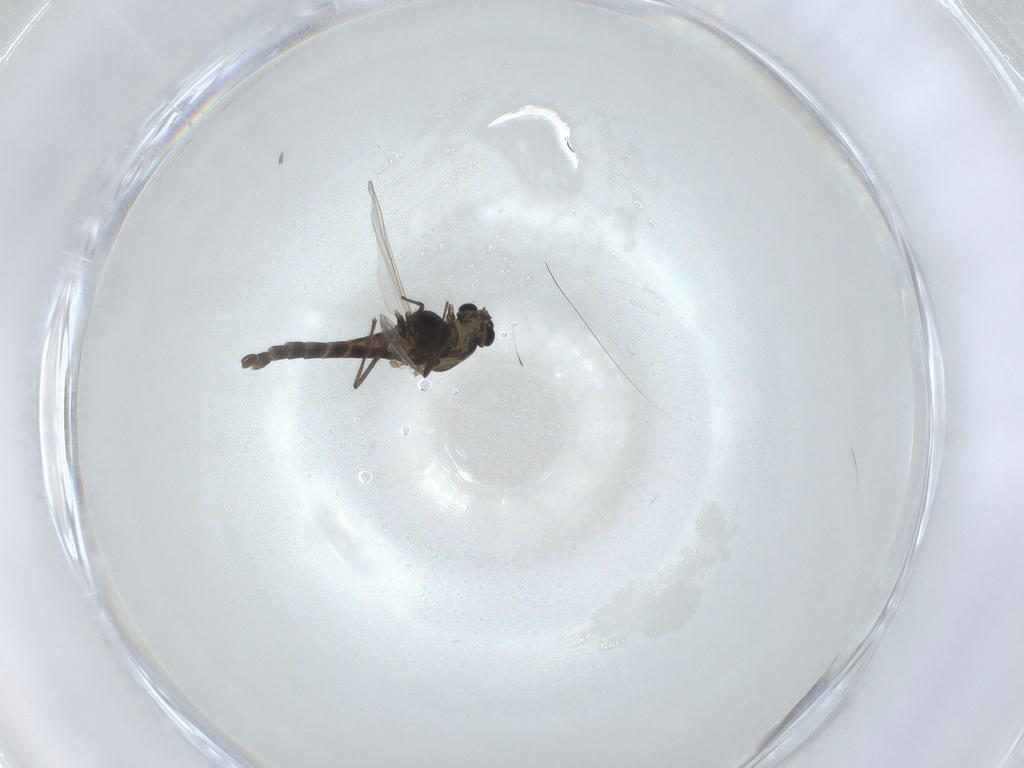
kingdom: Animalia
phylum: Arthropoda
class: Insecta
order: Diptera
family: Chironomidae
